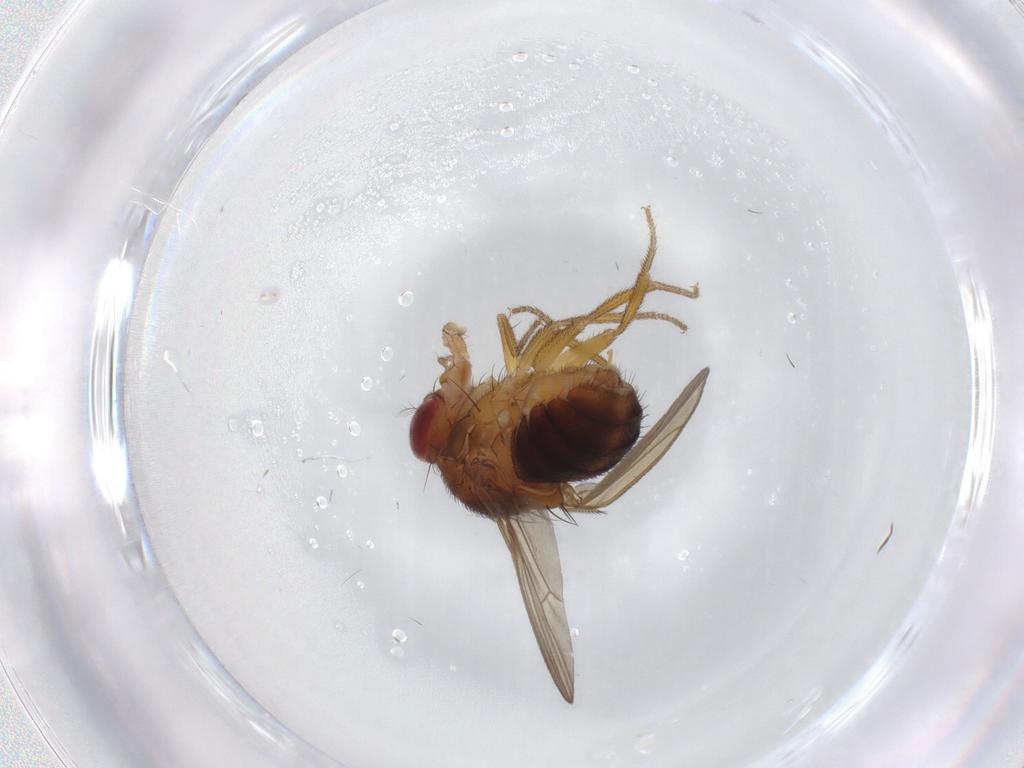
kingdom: Animalia
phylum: Arthropoda
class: Insecta
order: Diptera
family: Drosophilidae
